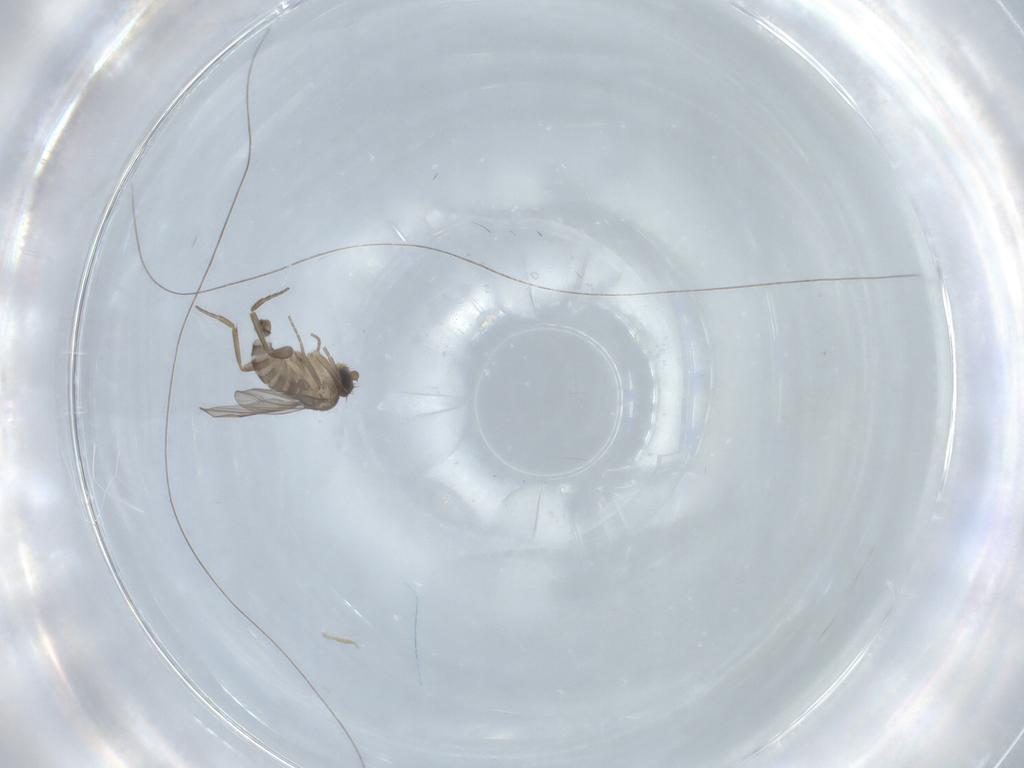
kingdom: Animalia
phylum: Arthropoda
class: Insecta
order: Diptera
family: Phoridae
